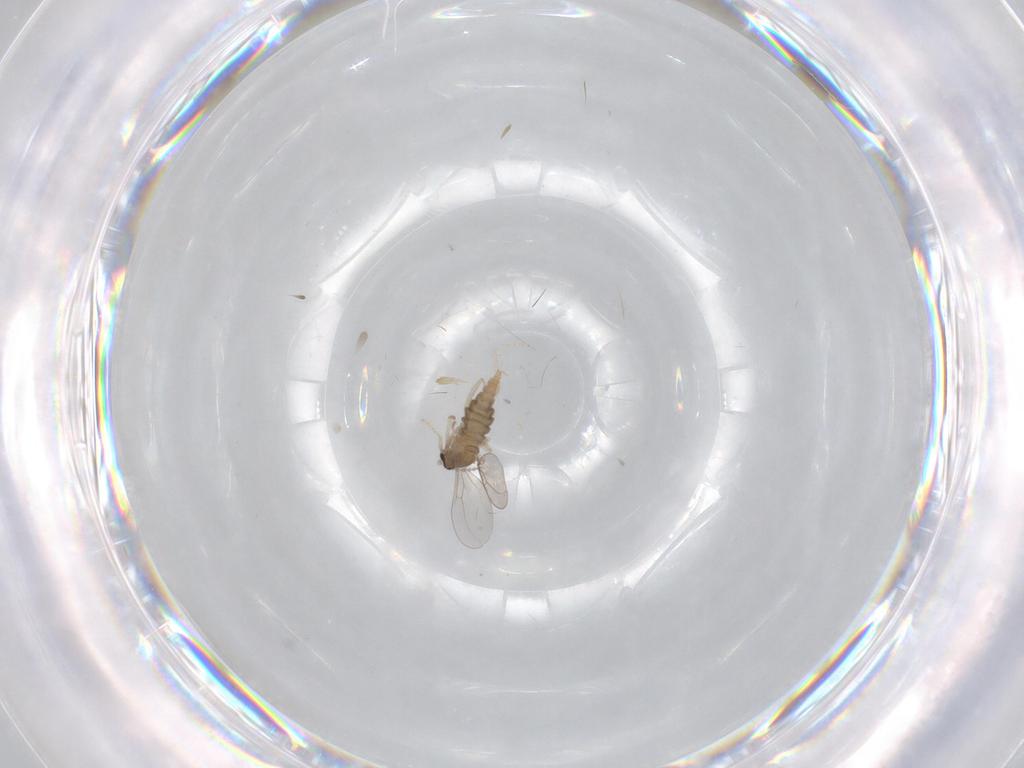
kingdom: Animalia
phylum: Arthropoda
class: Insecta
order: Diptera
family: Cecidomyiidae
